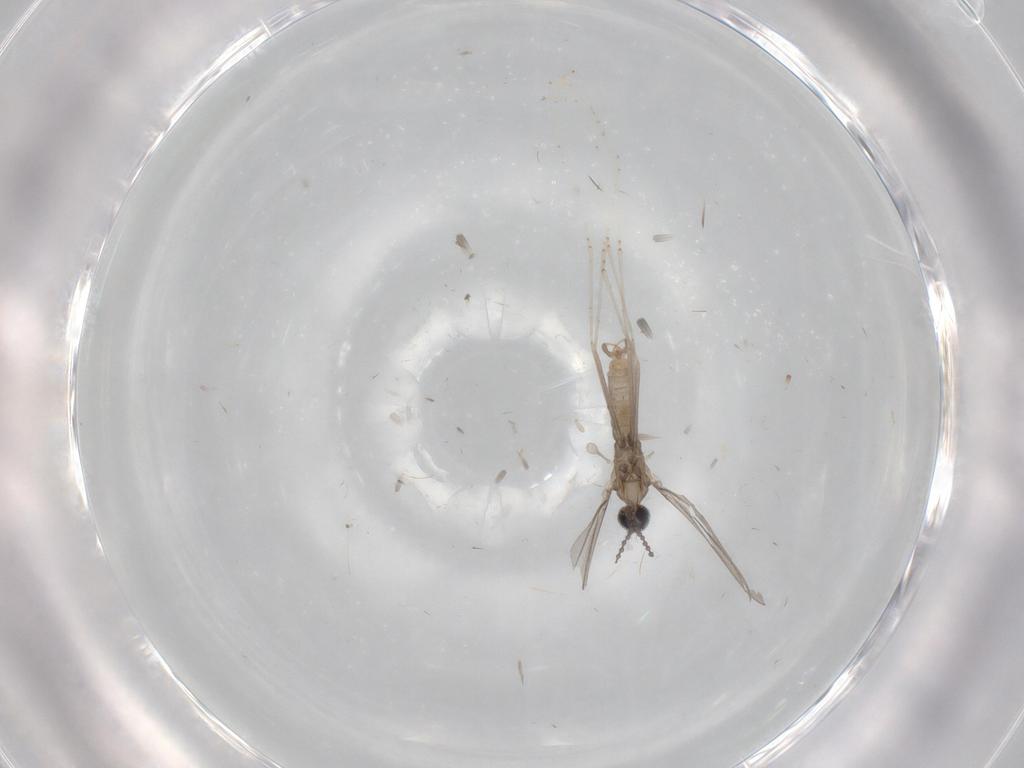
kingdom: Animalia
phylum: Arthropoda
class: Insecta
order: Diptera
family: Cecidomyiidae
